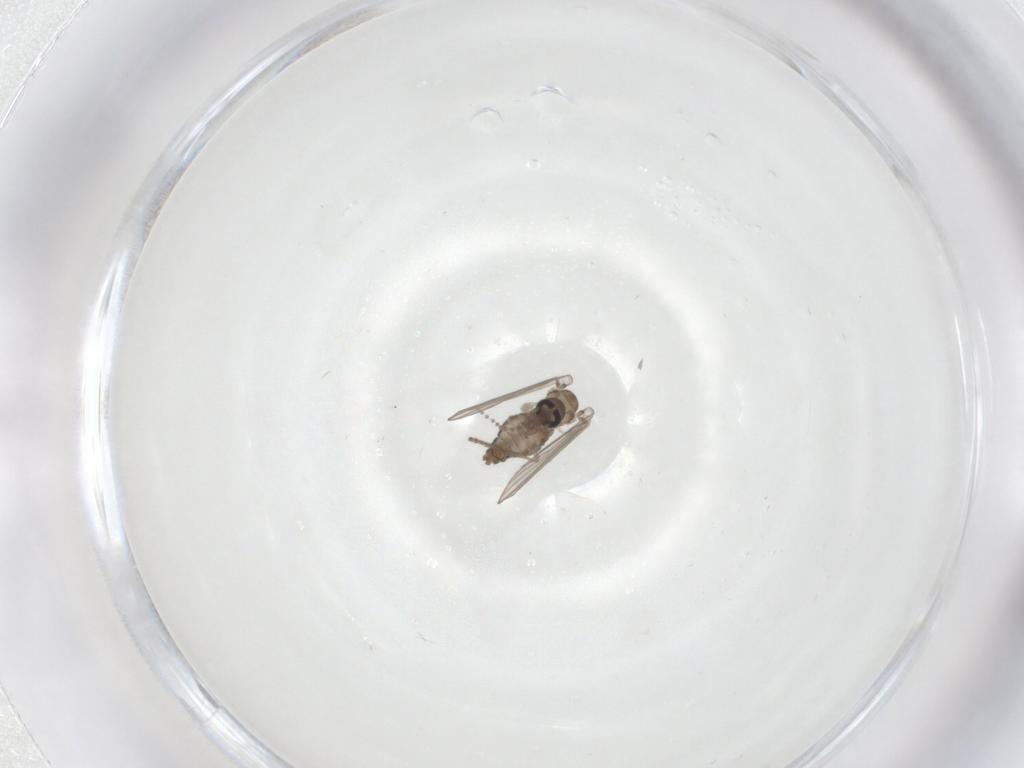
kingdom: Animalia
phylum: Arthropoda
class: Insecta
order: Diptera
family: Psychodidae
